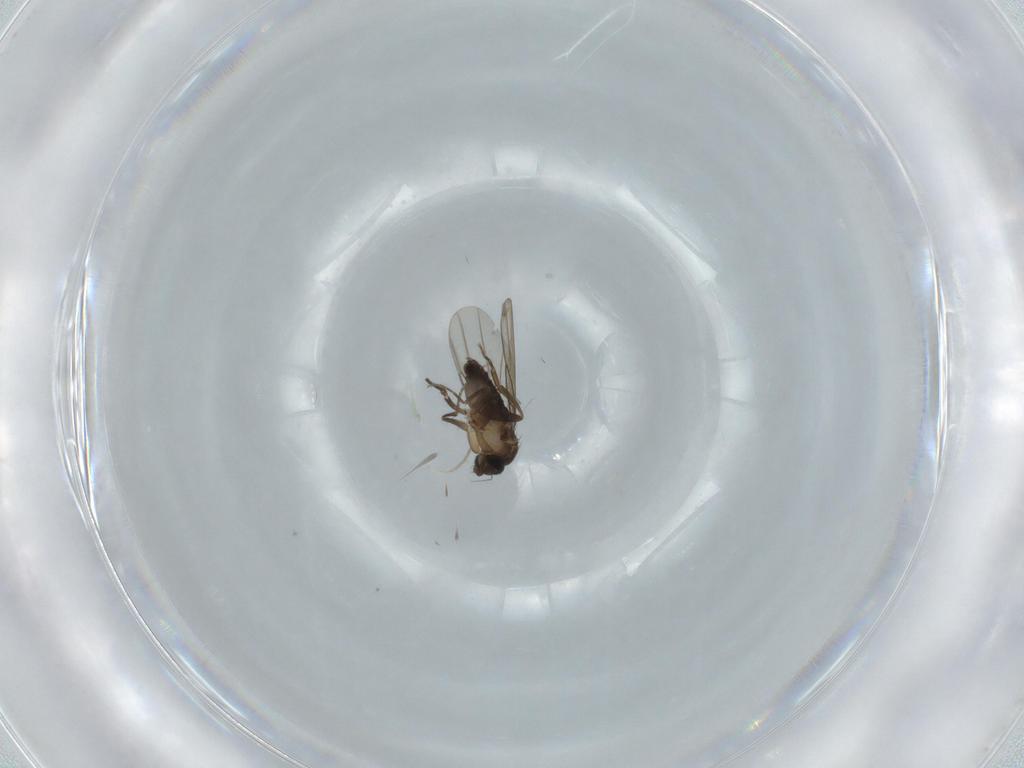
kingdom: Animalia
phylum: Arthropoda
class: Insecta
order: Diptera
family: Phoridae
